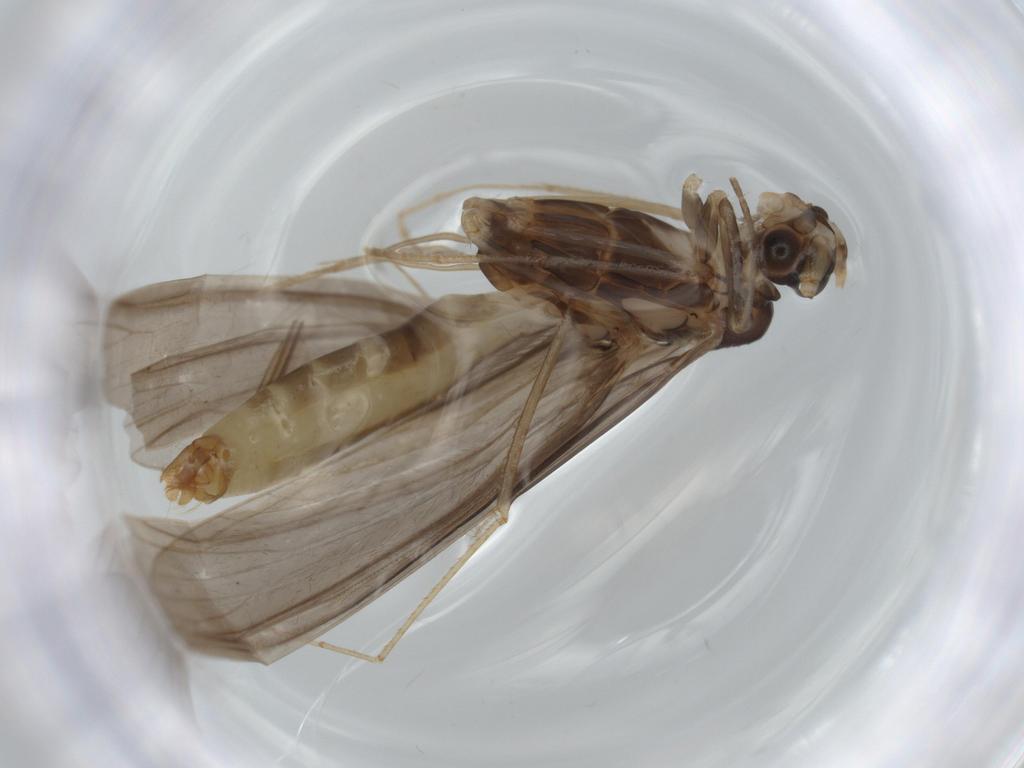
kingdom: Animalia
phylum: Arthropoda
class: Insecta
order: Trichoptera
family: Leptoceridae
